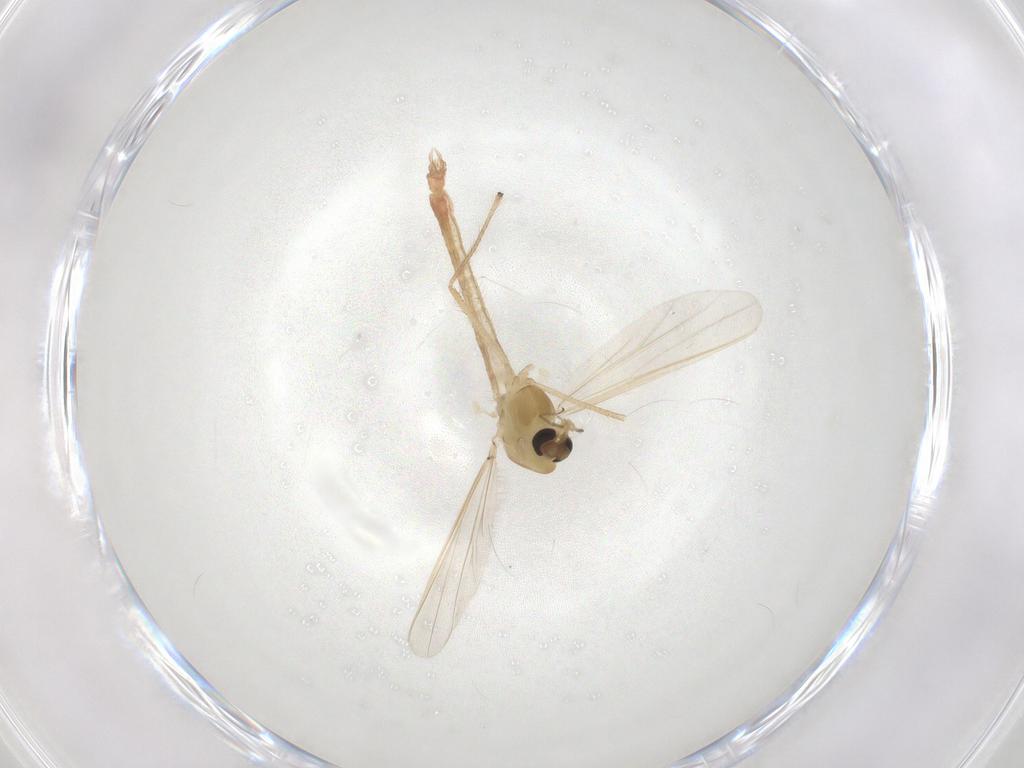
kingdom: Animalia
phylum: Arthropoda
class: Insecta
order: Diptera
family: Chironomidae
